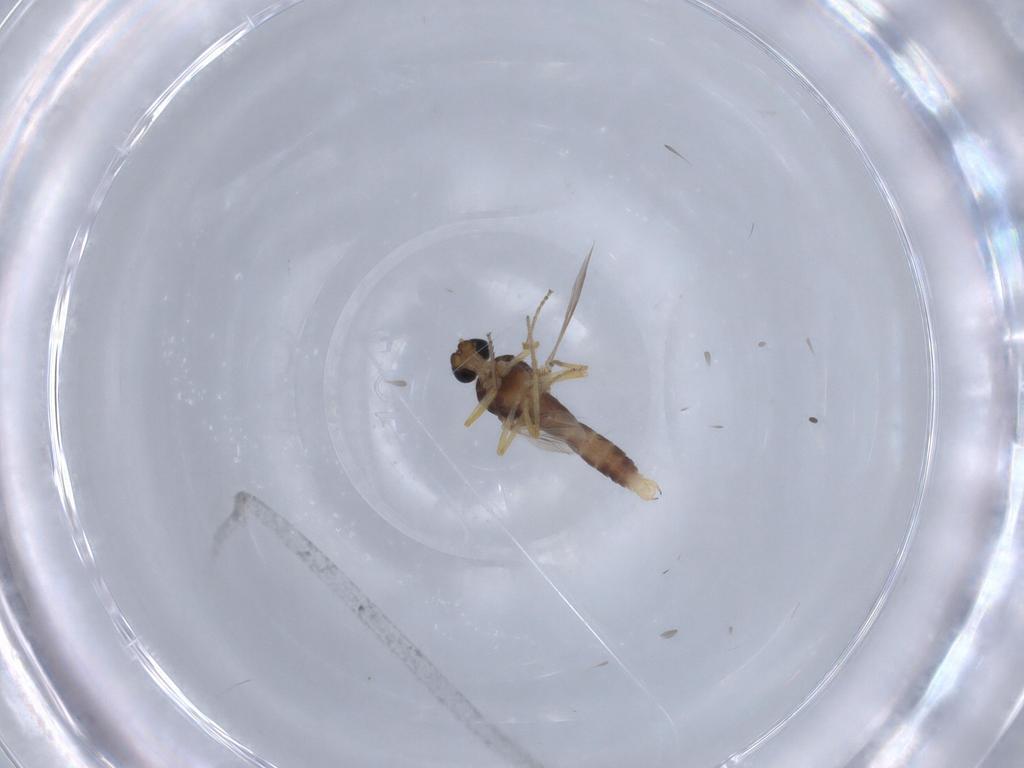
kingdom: Animalia
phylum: Arthropoda
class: Insecta
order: Diptera
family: Ceratopogonidae
